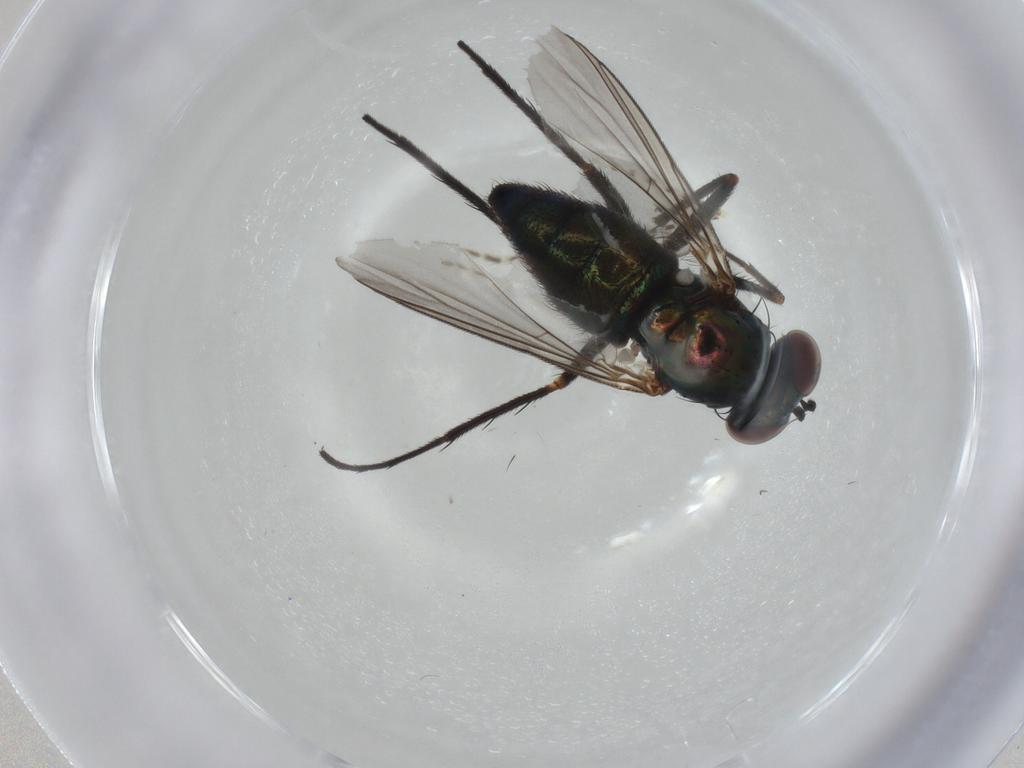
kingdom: Animalia
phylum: Arthropoda
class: Insecta
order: Diptera
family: Dolichopodidae
